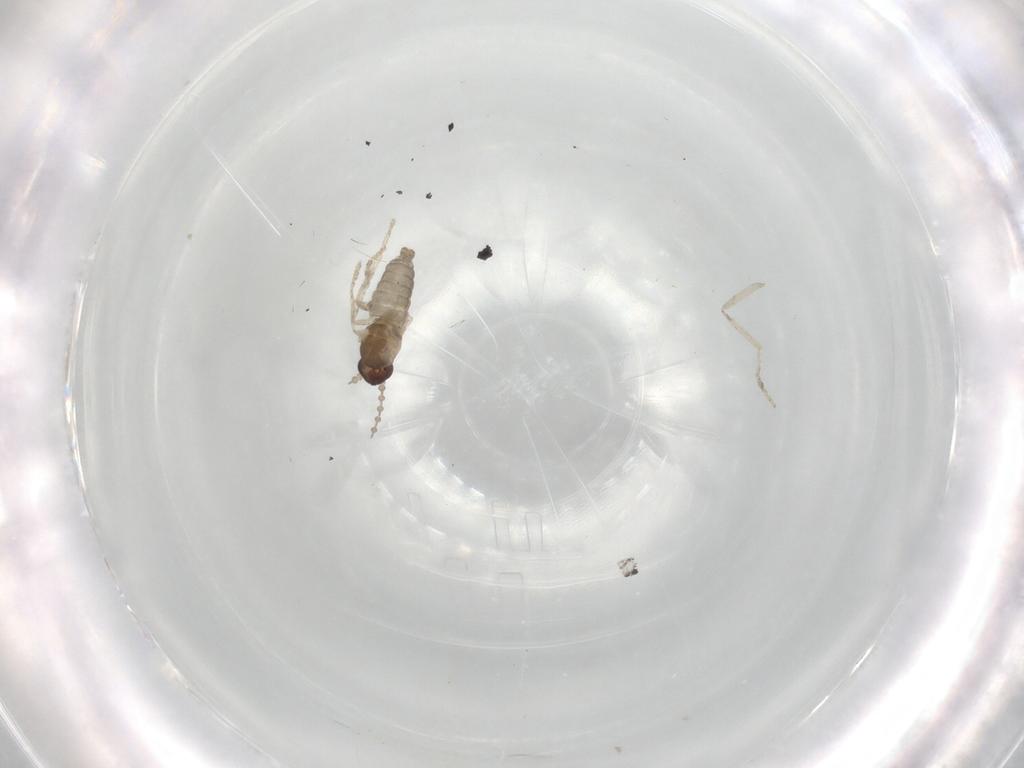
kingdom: Animalia
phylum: Arthropoda
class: Insecta
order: Diptera
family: Cecidomyiidae
